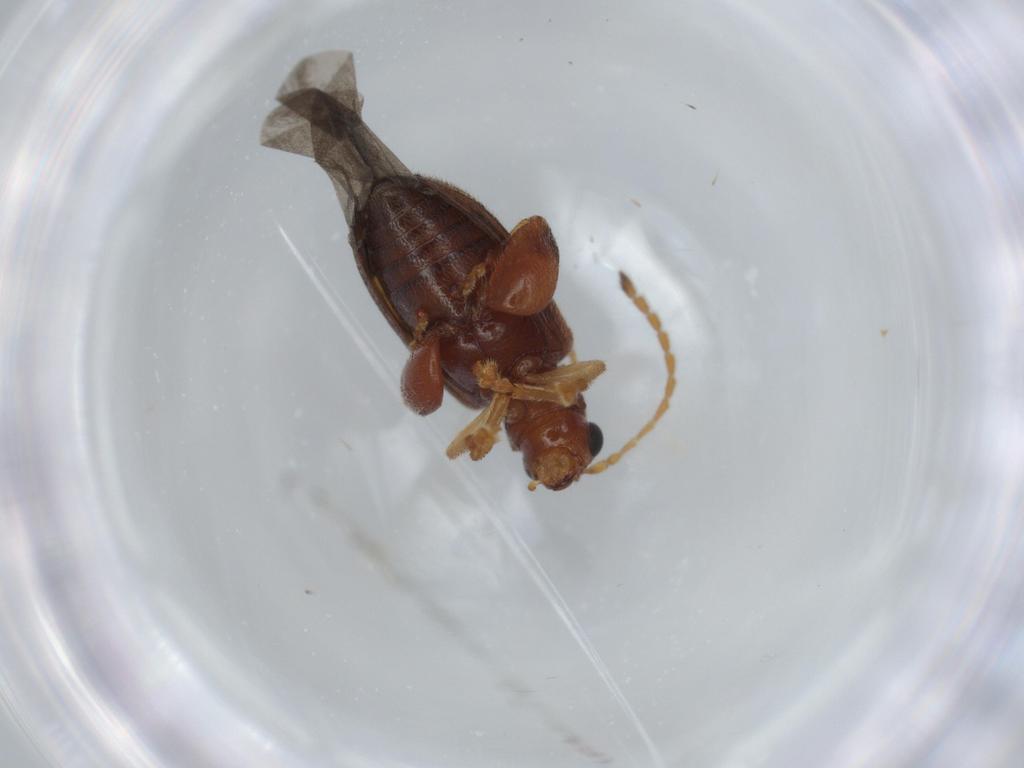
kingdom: Animalia
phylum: Arthropoda
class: Insecta
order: Coleoptera
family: Chrysomelidae
